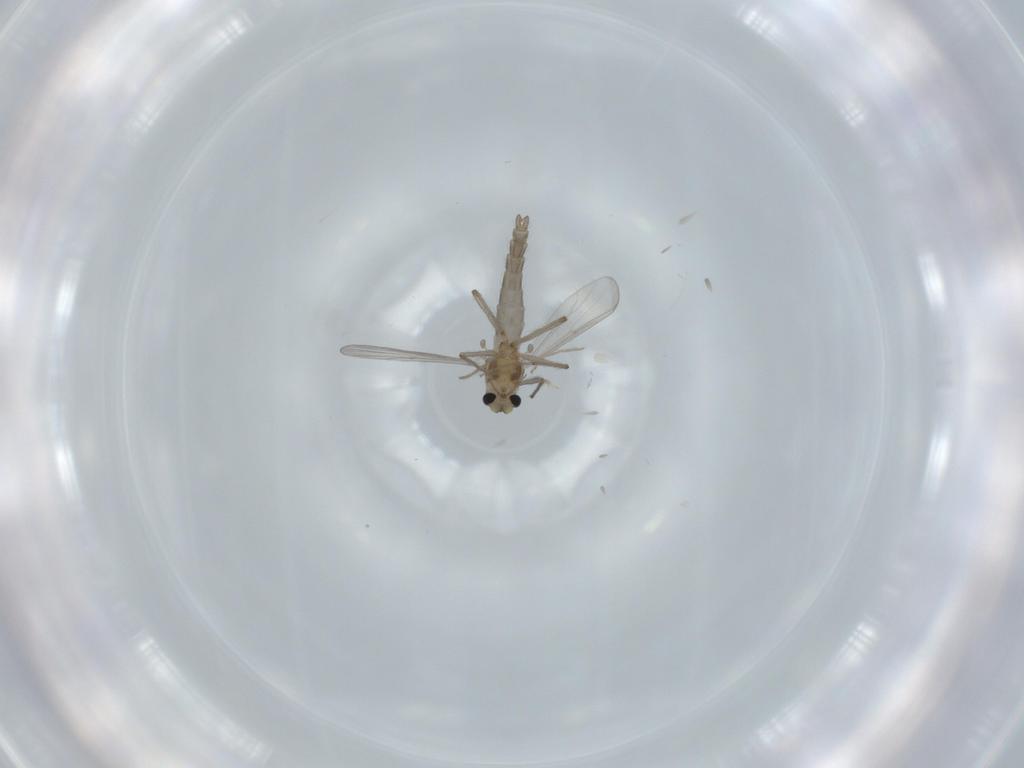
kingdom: Animalia
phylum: Arthropoda
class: Insecta
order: Diptera
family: Chironomidae
